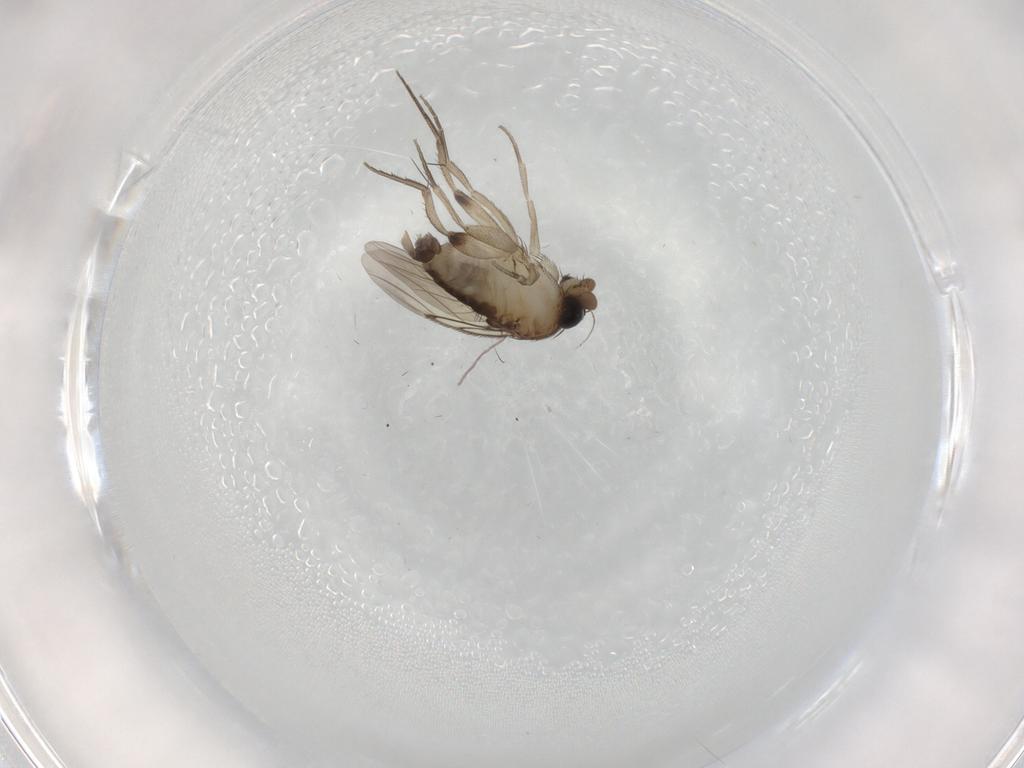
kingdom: Animalia
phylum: Arthropoda
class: Insecta
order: Diptera
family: Phoridae
